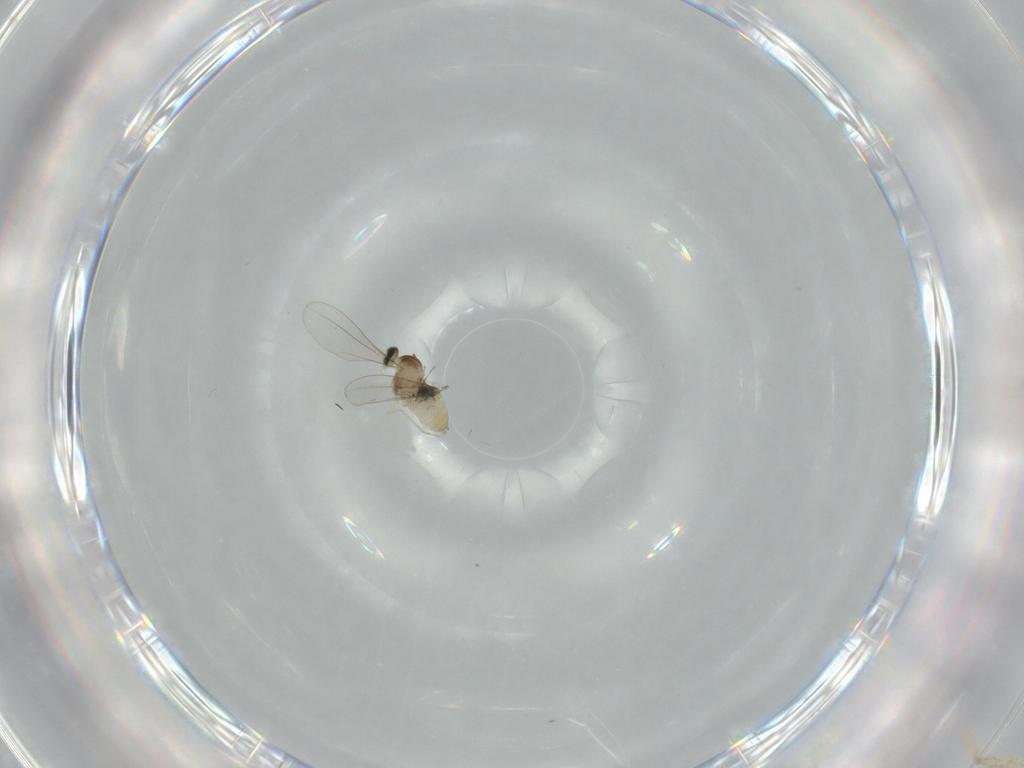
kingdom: Animalia
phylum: Arthropoda
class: Insecta
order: Diptera
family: Cecidomyiidae
